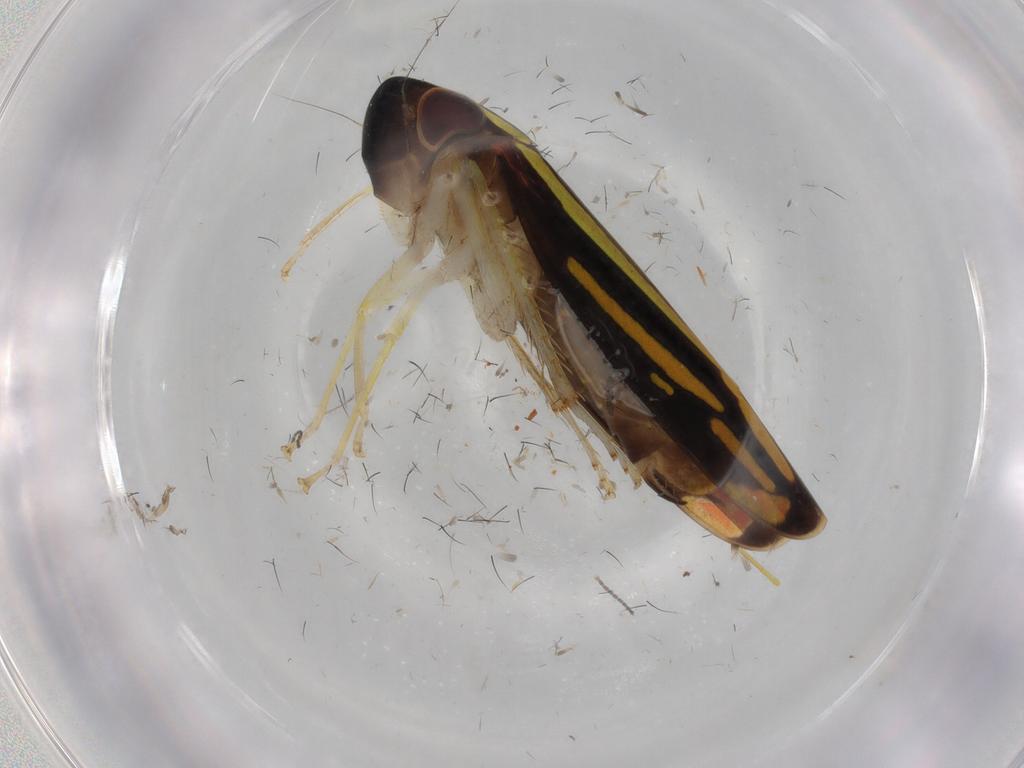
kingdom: Animalia
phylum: Arthropoda
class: Insecta
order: Hemiptera
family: Cicadellidae
